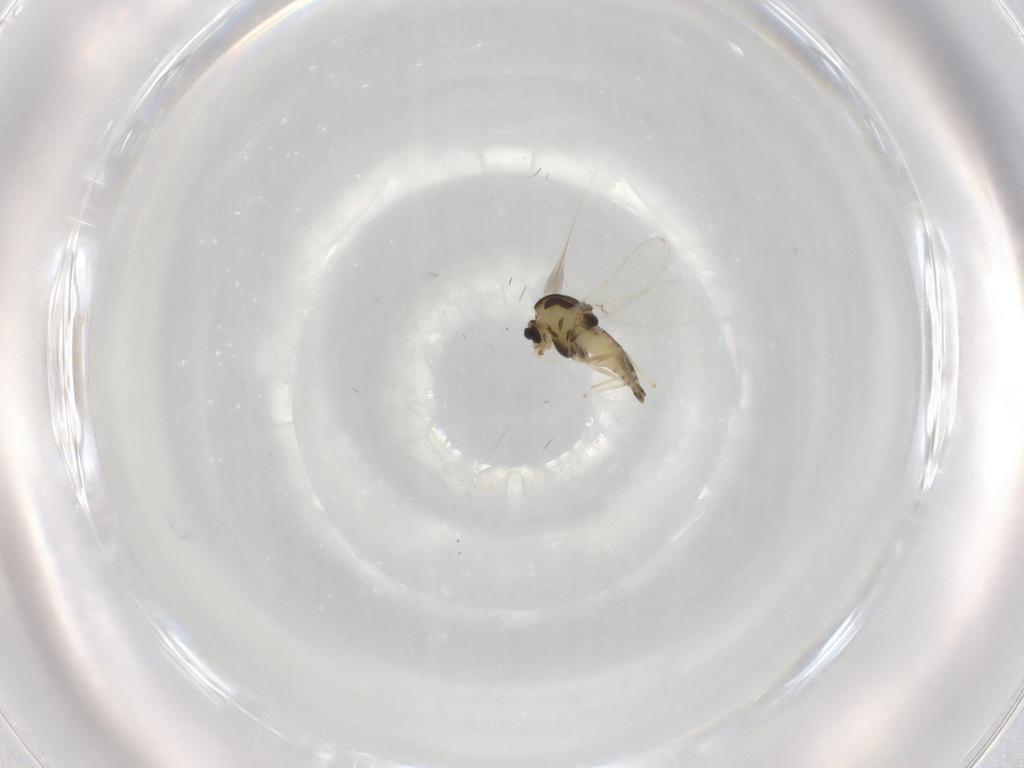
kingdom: Animalia
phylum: Arthropoda
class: Insecta
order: Diptera
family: Chironomidae
